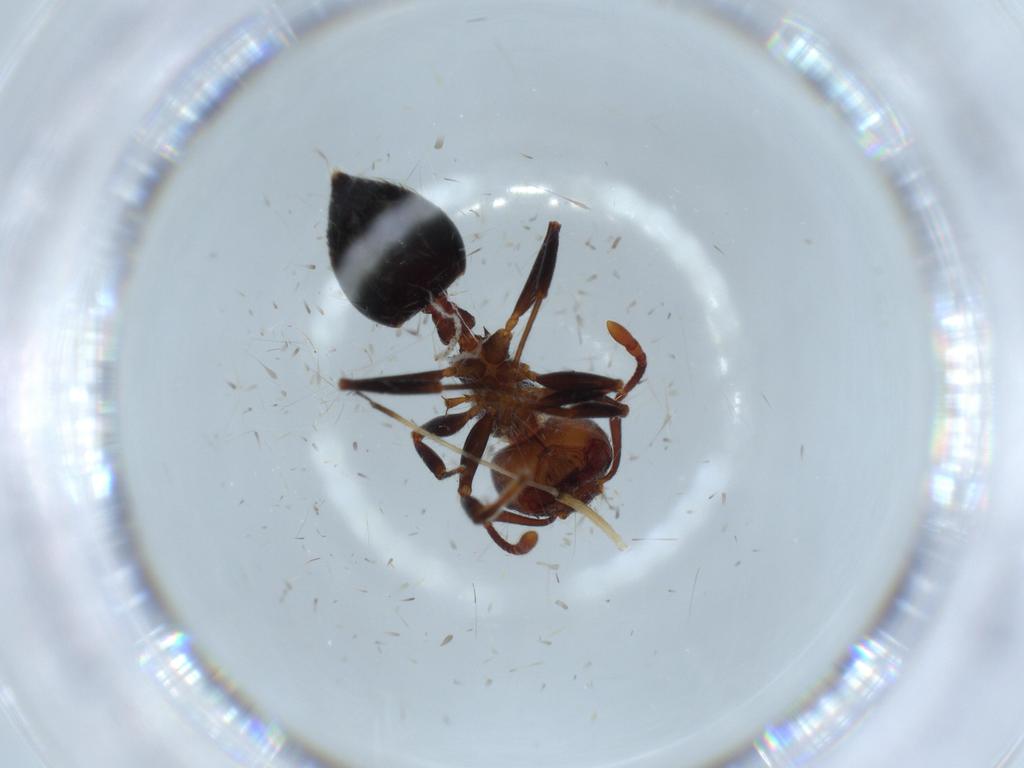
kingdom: Animalia
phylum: Arthropoda
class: Insecta
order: Hymenoptera
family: Formicidae
